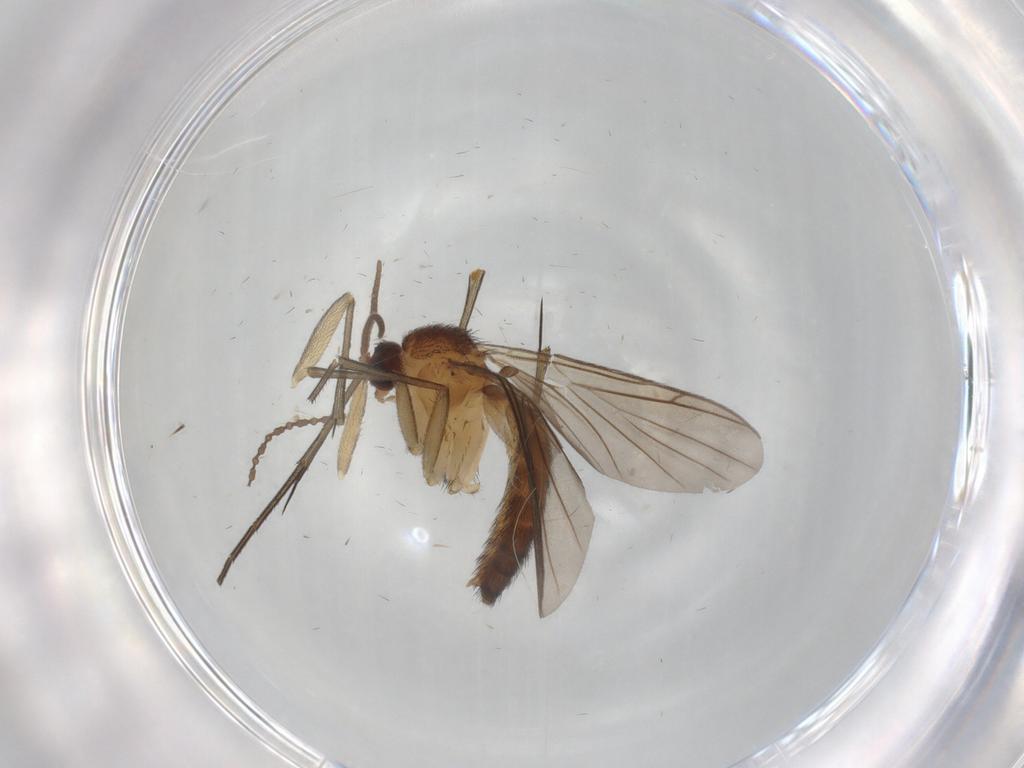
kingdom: Animalia
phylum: Arthropoda
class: Insecta
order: Diptera
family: Keroplatidae
